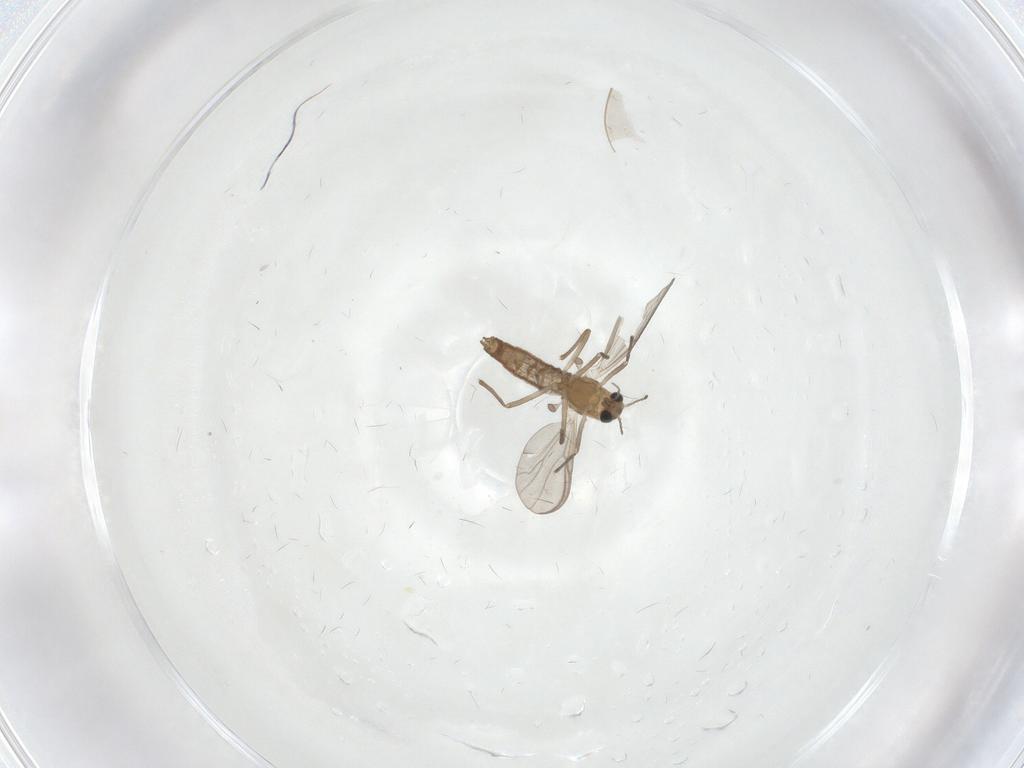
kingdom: Animalia
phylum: Arthropoda
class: Insecta
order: Diptera
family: Chironomidae
